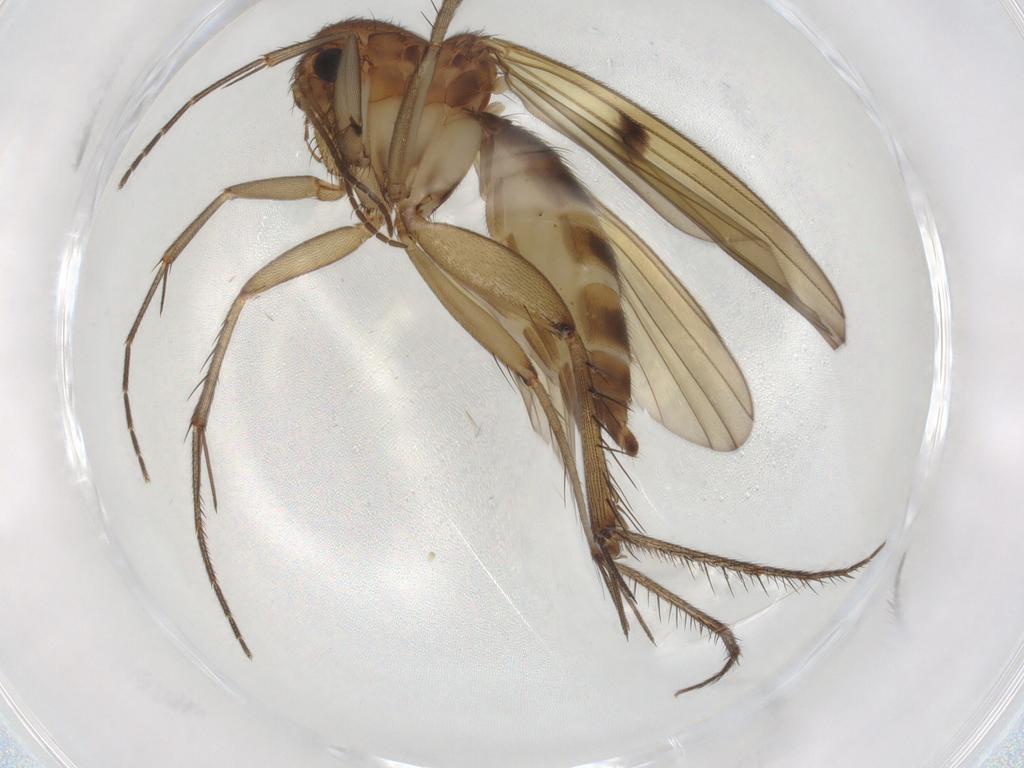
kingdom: Animalia
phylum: Arthropoda
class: Insecta
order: Diptera
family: Mycetophilidae
